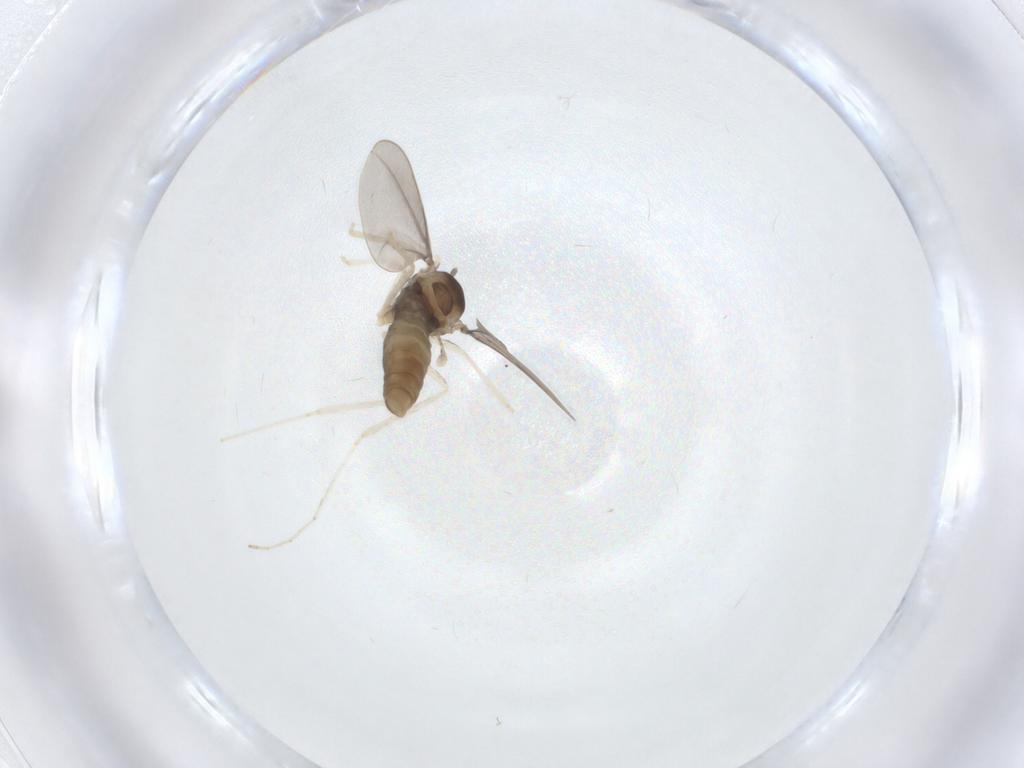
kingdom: Animalia
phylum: Arthropoda
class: Insecta
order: Diptera
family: Cecidomyiidae
